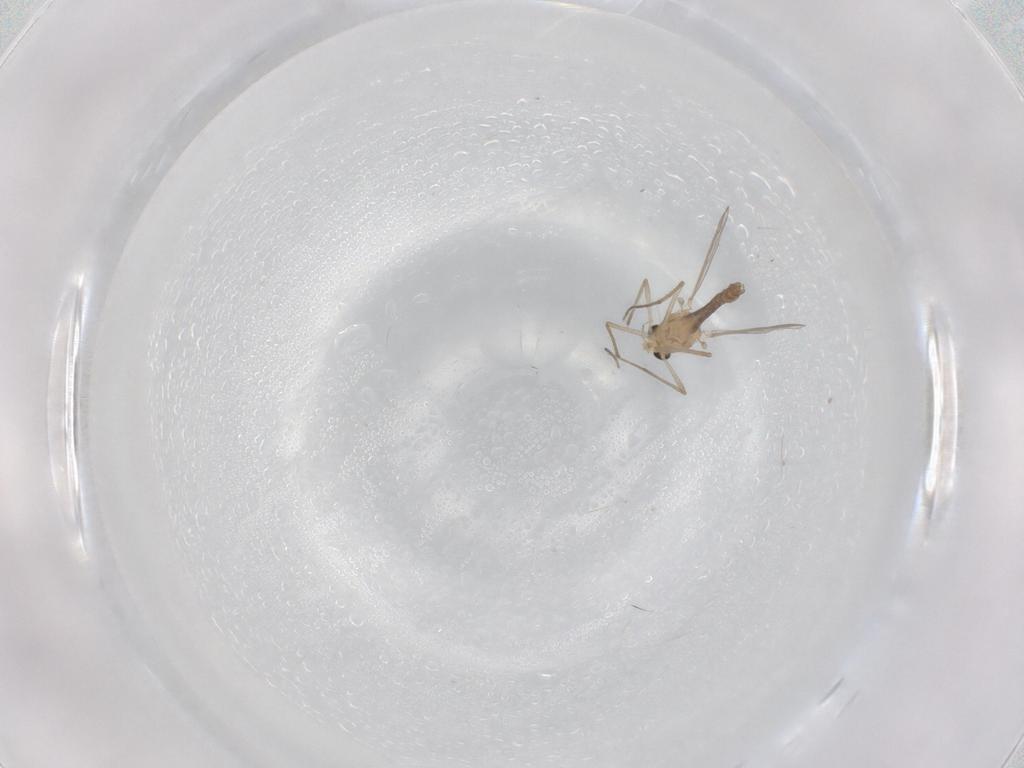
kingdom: Animalia
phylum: Arthropoda
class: Insecta
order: Diptera
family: Chironomidae
